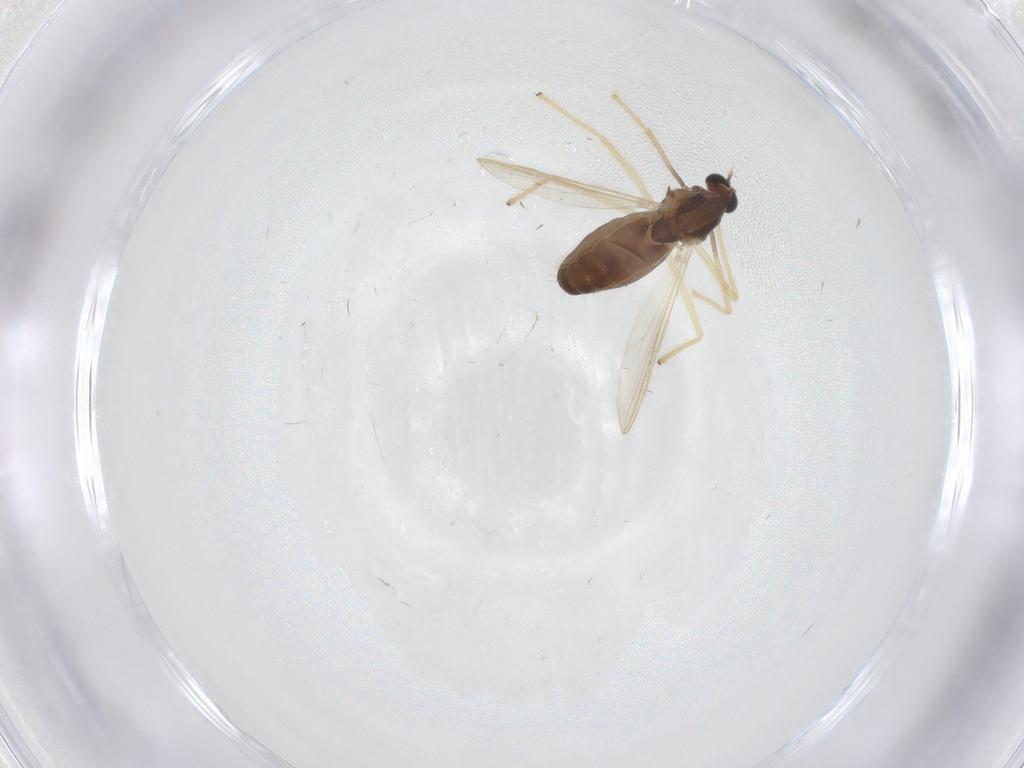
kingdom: Animalia
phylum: Arthropoda
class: Insecta
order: Diptera
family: Chironomidae
